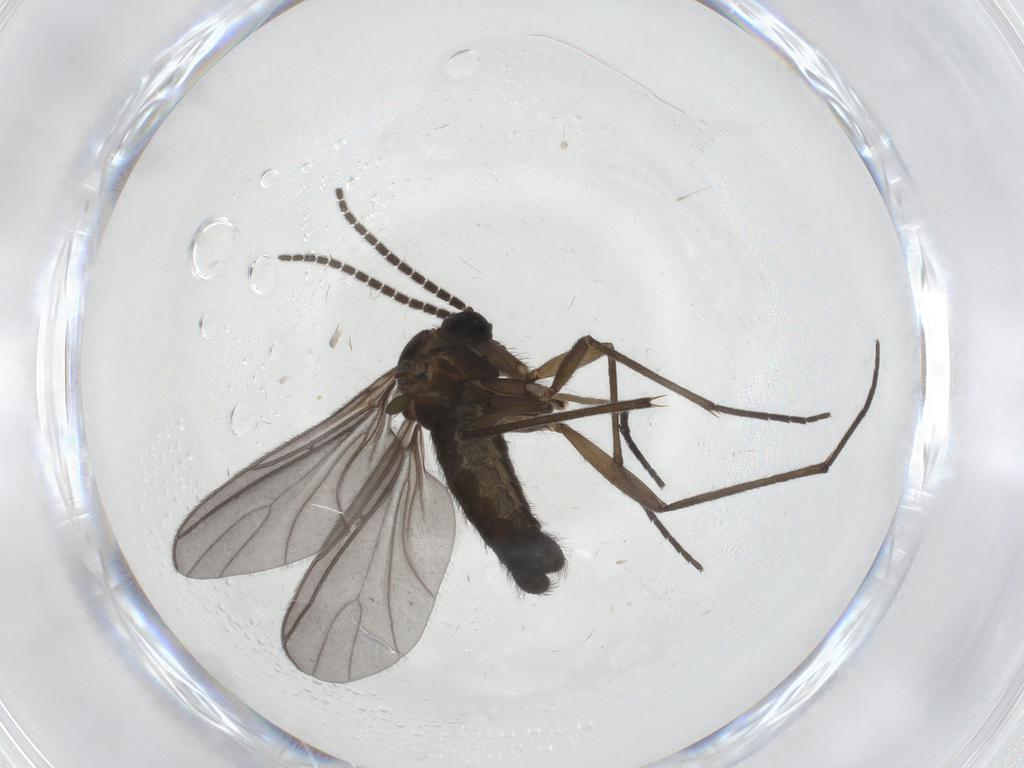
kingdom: Animalia
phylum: Arthropoda
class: Insecta
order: Diptera
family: Sciaridae
